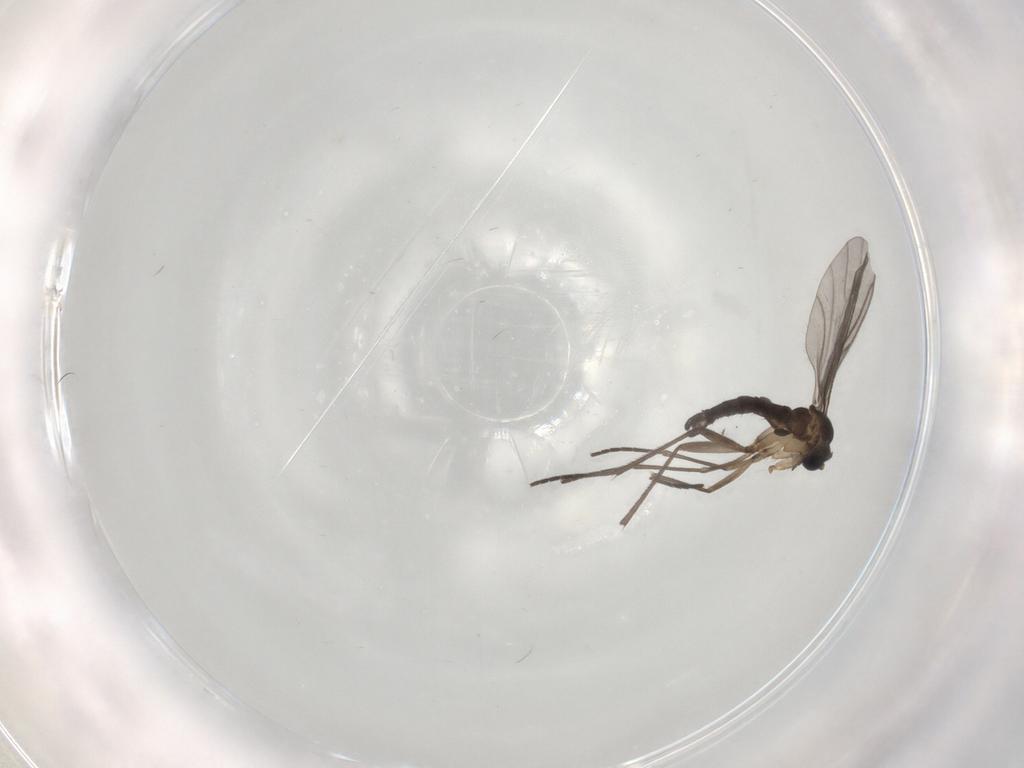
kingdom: Animalia
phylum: Arthropoda
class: Insecta
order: Diptera
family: Sciaridae
